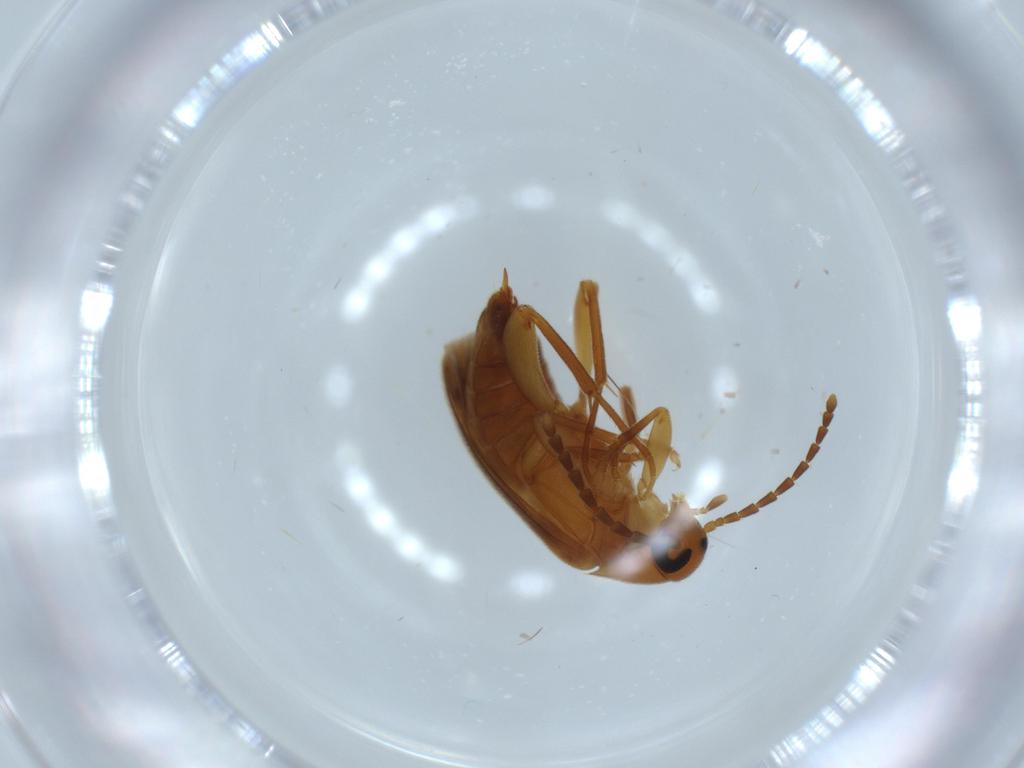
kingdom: Animalia
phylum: Arthropoda
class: Insecta
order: Coleoptera
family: Scraptiidae
